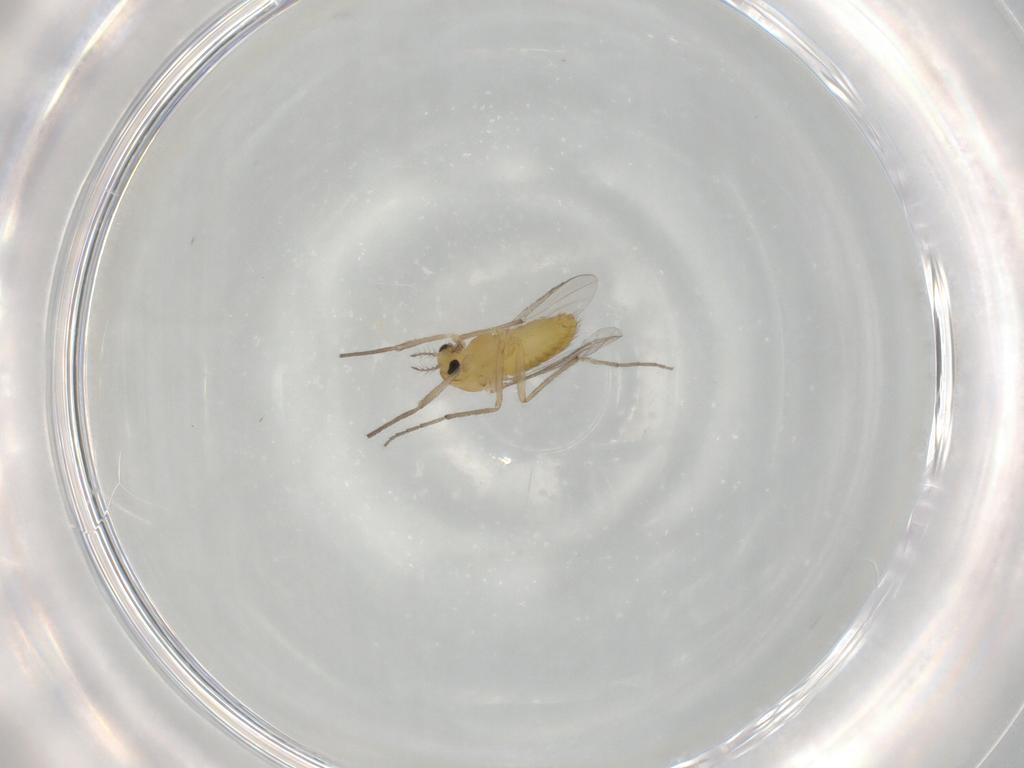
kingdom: Animalia
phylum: Arthropoda
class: Insecta
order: Diptera
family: Chironomidae
